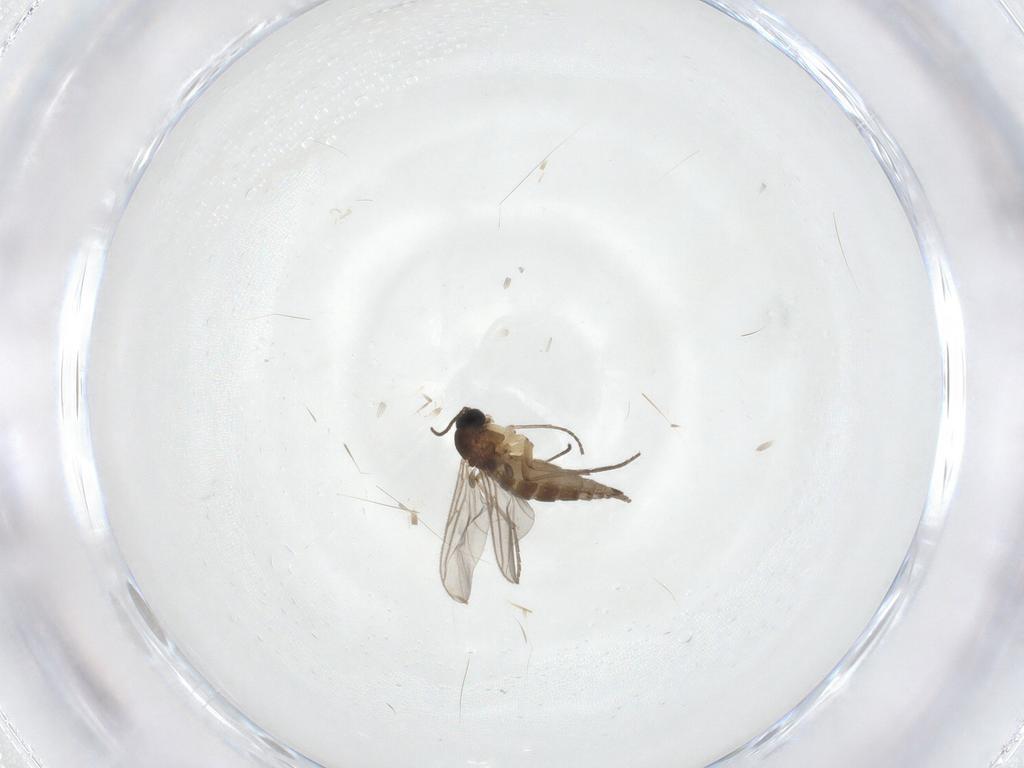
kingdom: Animalia
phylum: Arthropoda
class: Insecta
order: Diptera
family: Sciaridae
